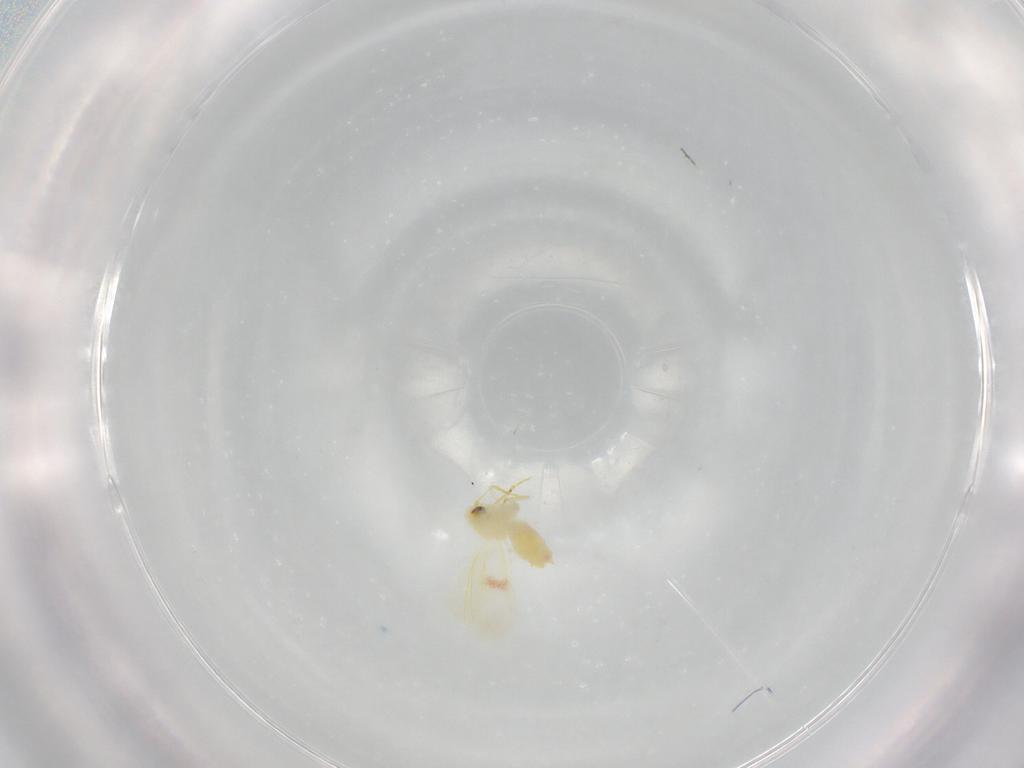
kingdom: Animalia
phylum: Arthropoda
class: Insecta
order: Hemiptera
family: Aleyrodidae
